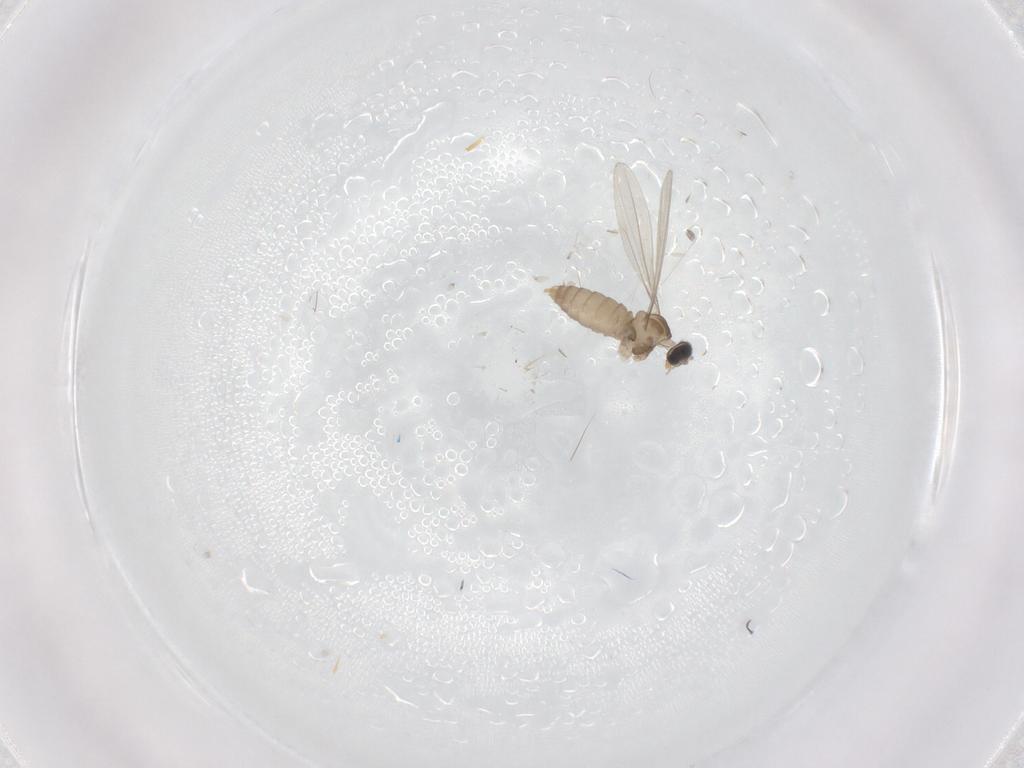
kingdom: Animalia
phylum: Arthropoda
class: Insecta
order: Diptera
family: Cecidomyiidae
